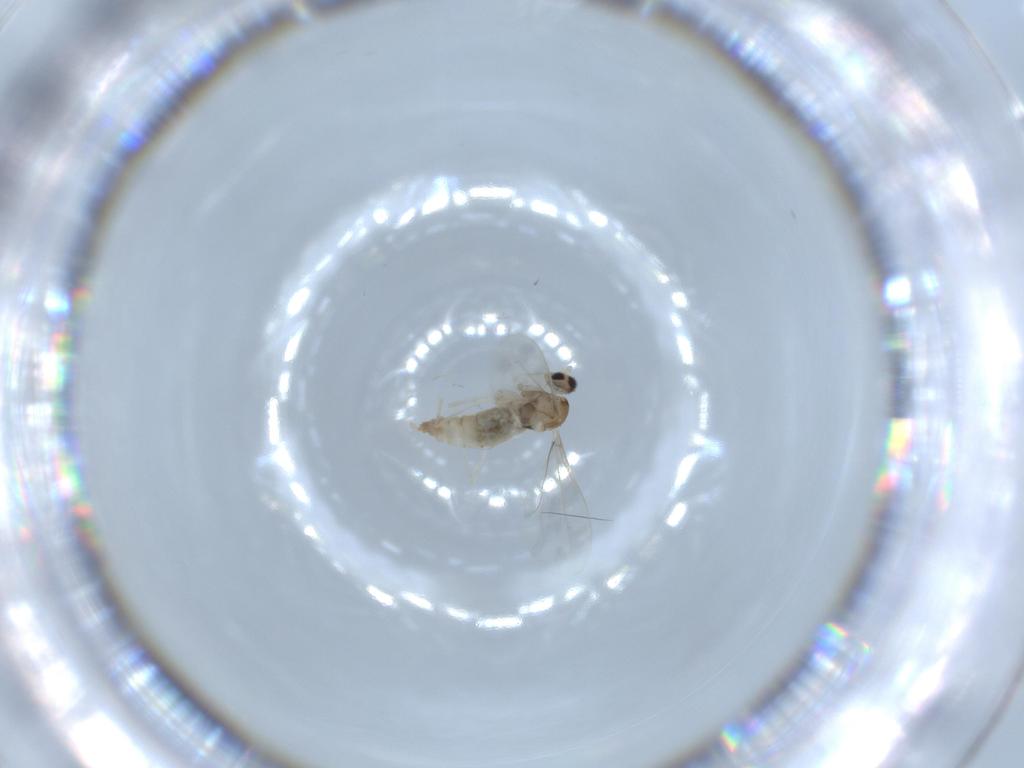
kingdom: Animalia
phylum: Arthropoda
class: Insecta
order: Diptera
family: Cecidomyiidae
